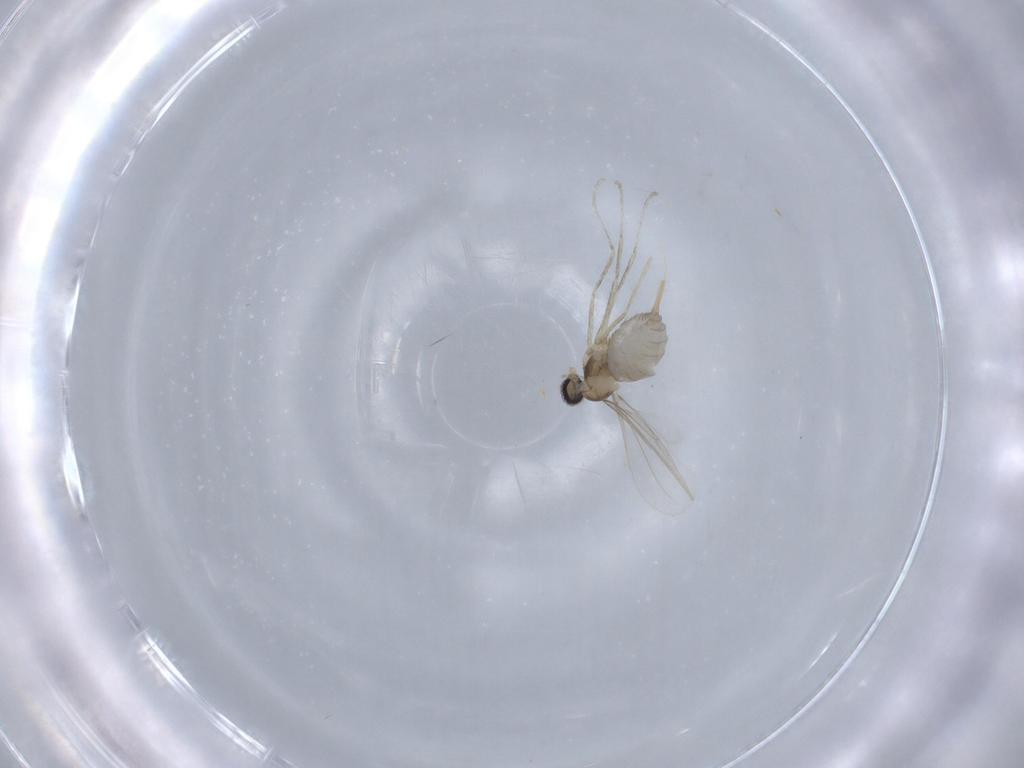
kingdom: Animalia
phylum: Arthropoda
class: Insecta
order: Diptera
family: Cecidomyiidae
